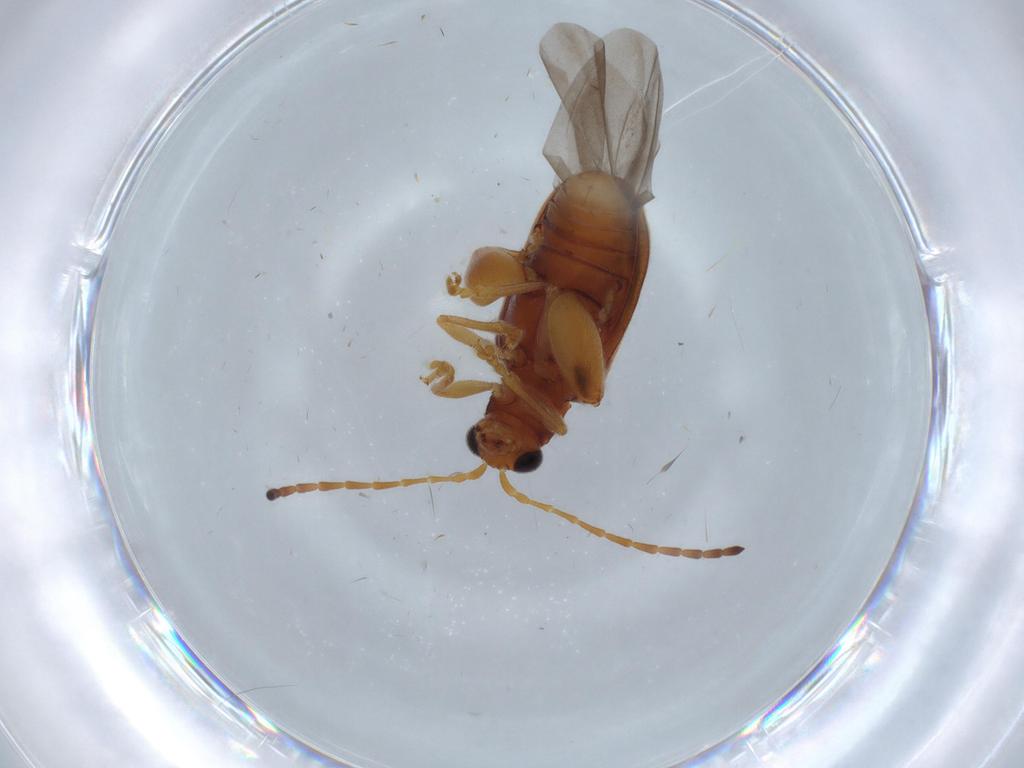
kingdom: Animalia
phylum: Arthropoda
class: Insecta
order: Coleoptera
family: Chrysomelidae
